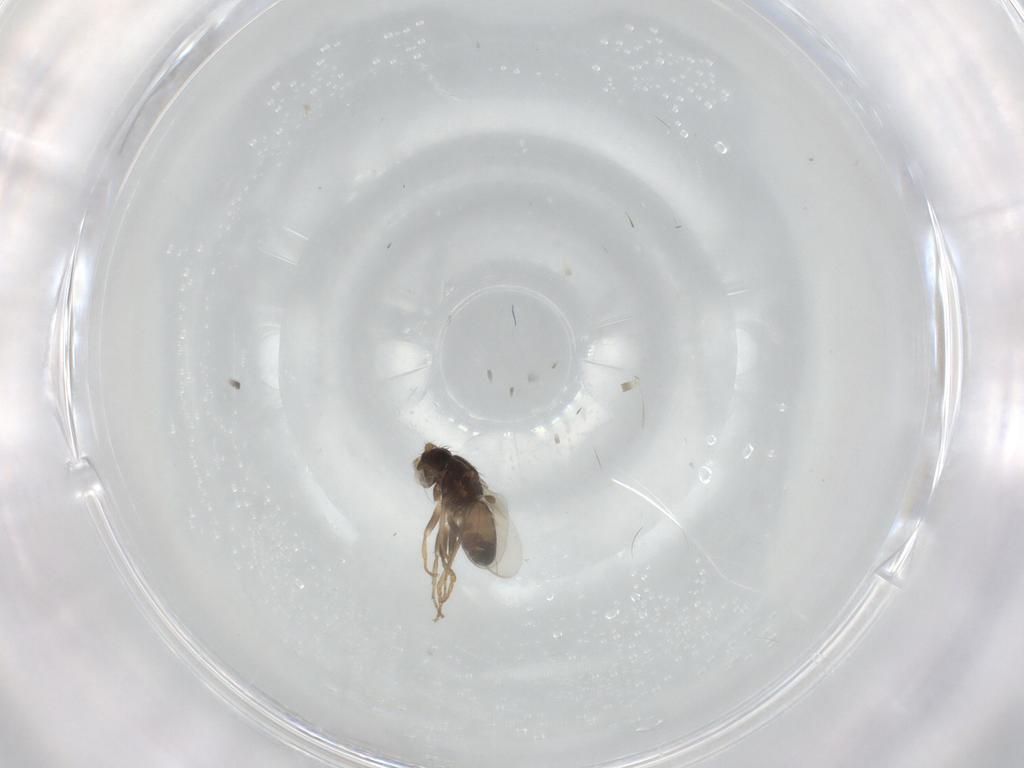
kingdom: Animalia
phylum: Arthropoda
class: Insecta
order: Diptera
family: Sphaeroceridae
